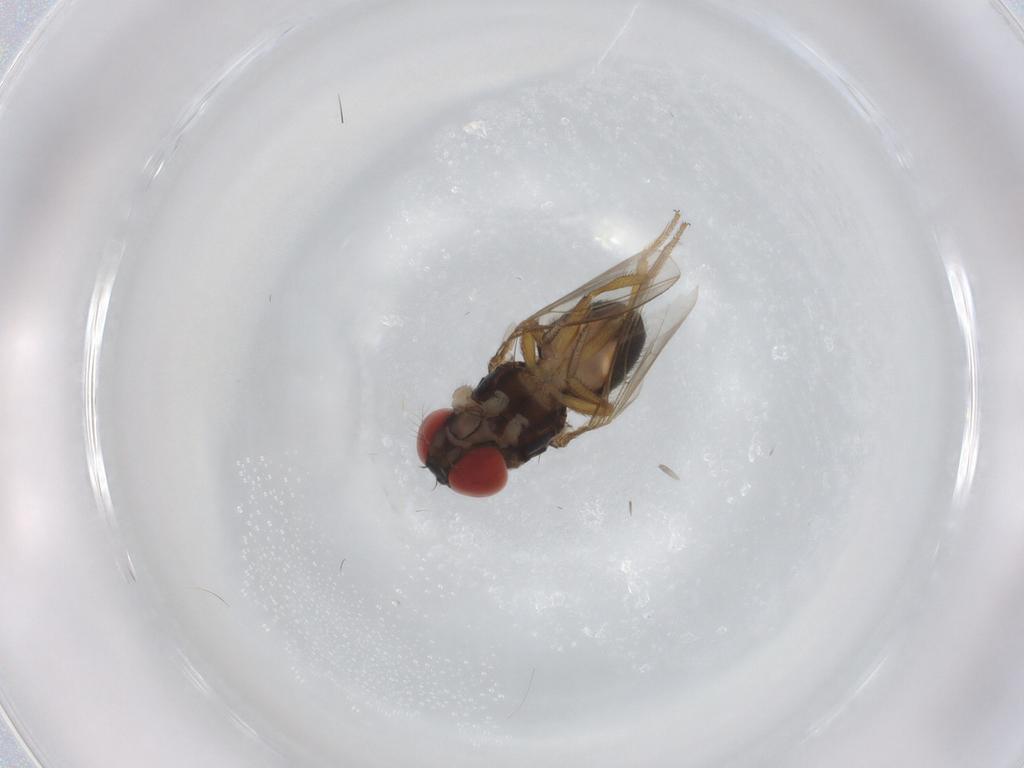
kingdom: Animalia
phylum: Arthropoda
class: Insecta
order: Diptera
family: Drosophilidae
